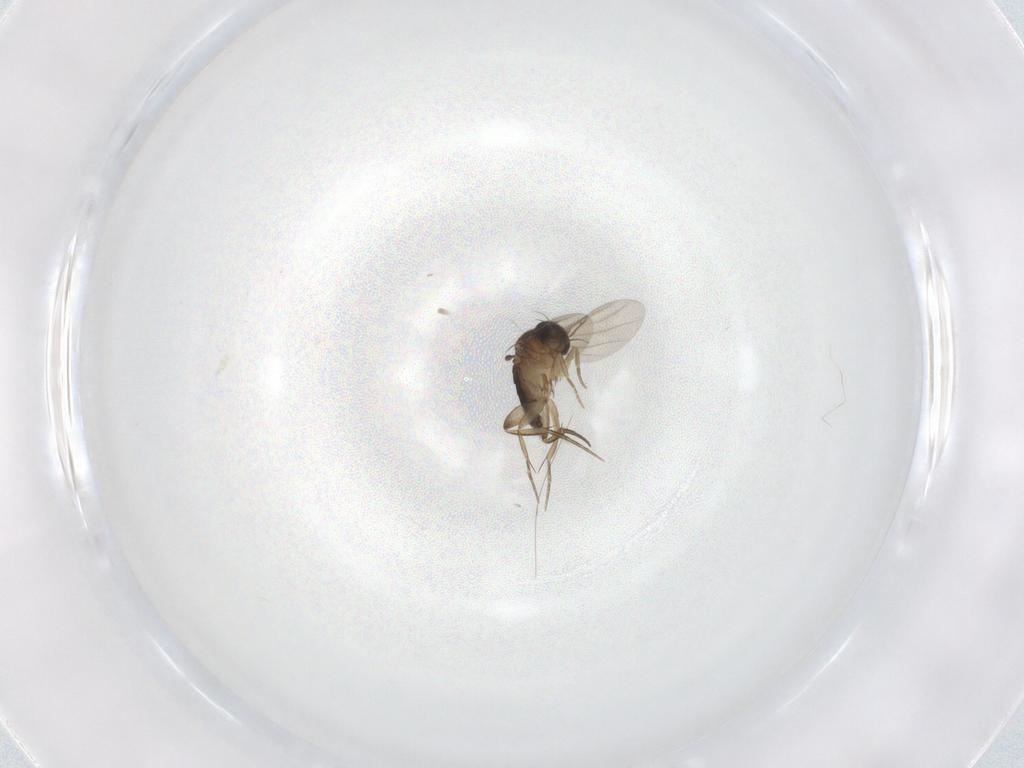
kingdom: Animalia
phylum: Arthropoda
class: Insecta
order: Diptera
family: Phoridae
